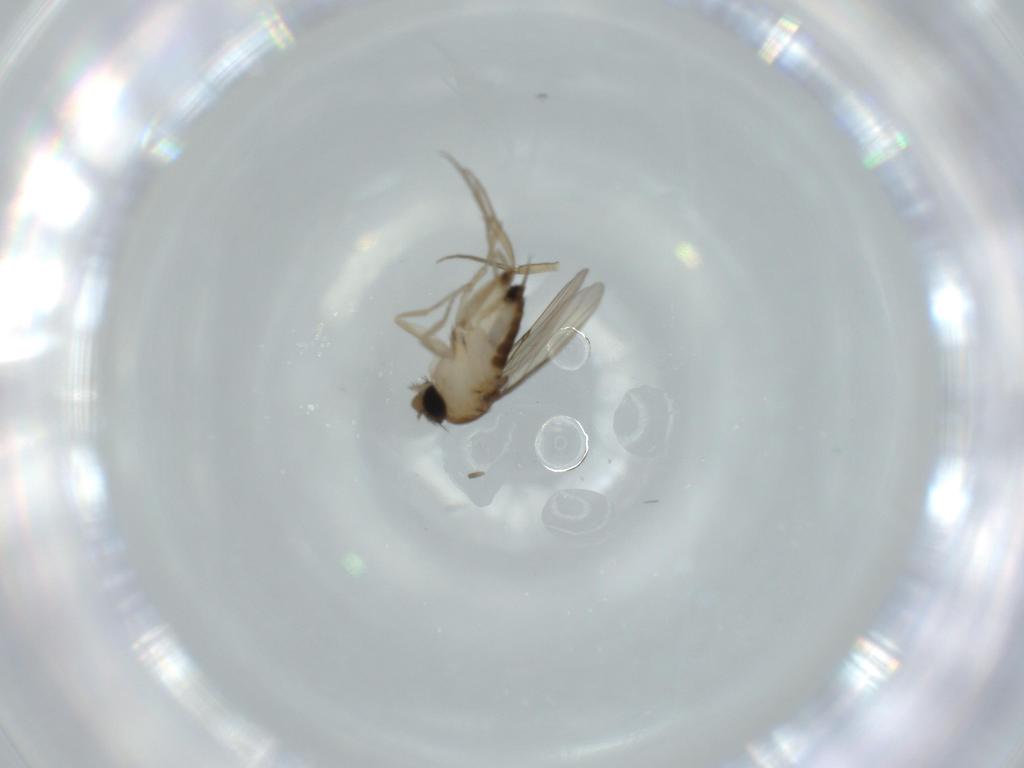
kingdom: Animalia
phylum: Arthropoda
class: Insecta
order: Diptera
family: Phoridae
